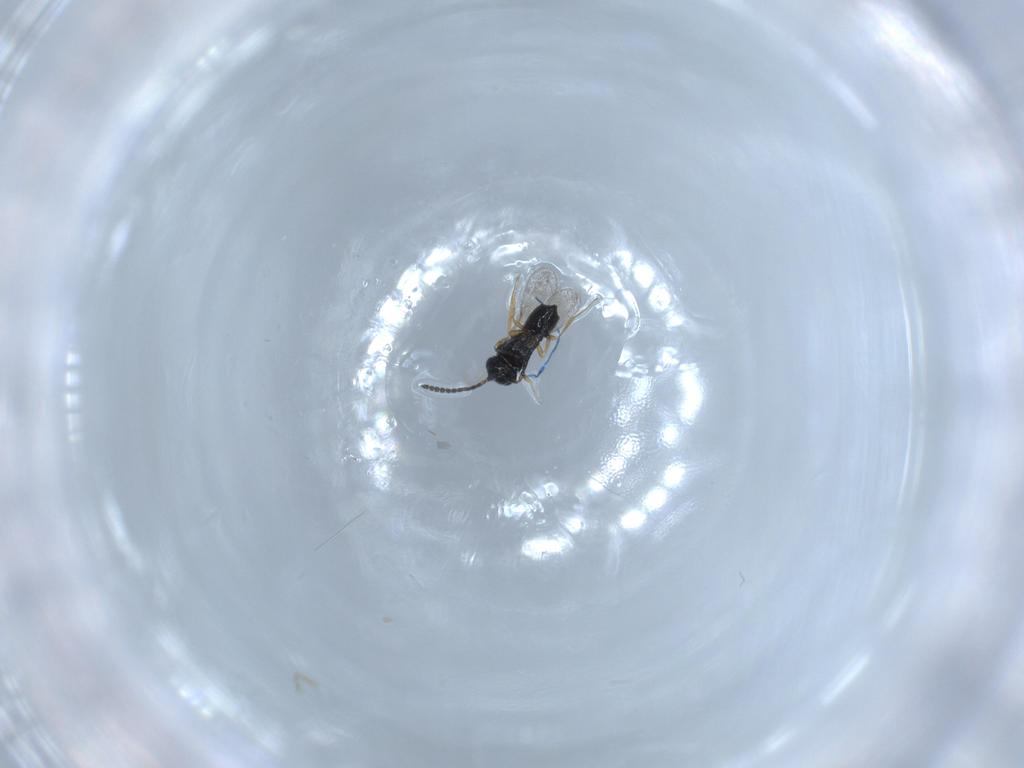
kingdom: Animalia
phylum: Arthropoda
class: Insecta
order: Hymenoptera
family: Scelionidae
